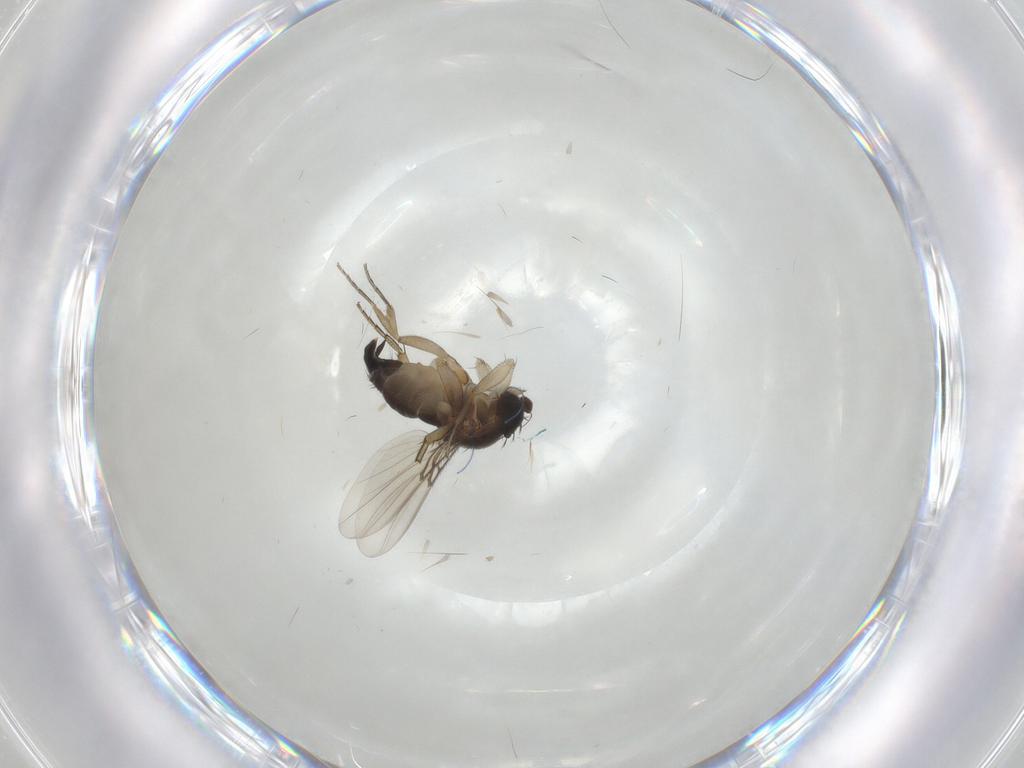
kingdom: Animalia
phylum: Arthropoda
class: Insecta
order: Diptera
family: Phoridae
